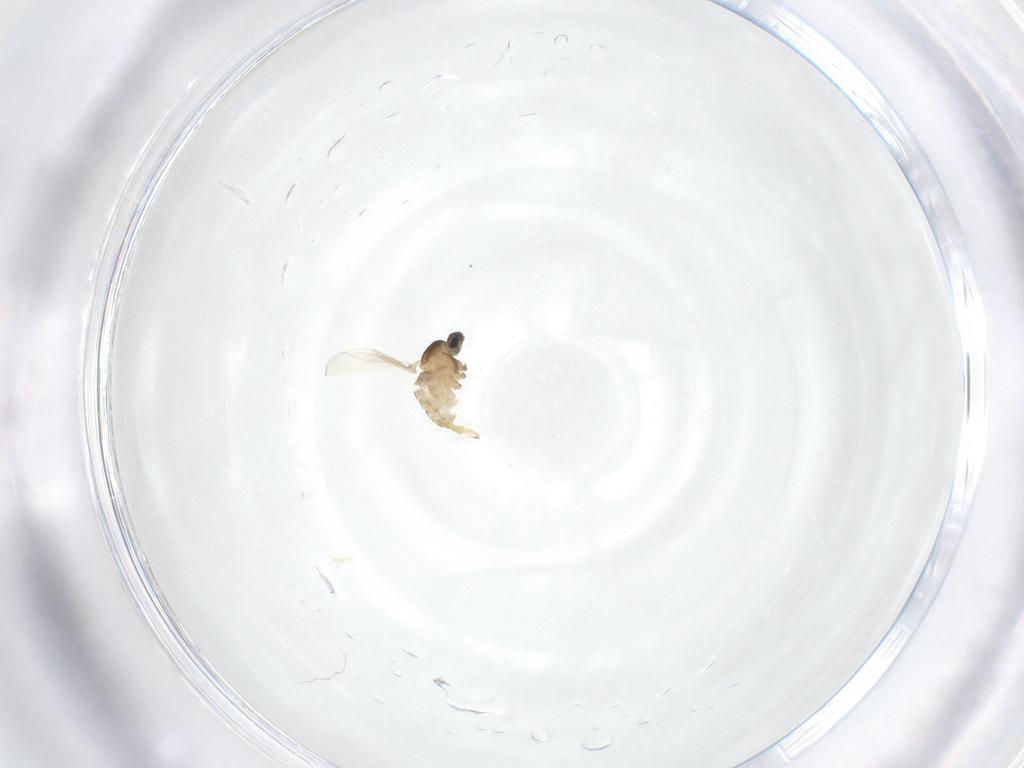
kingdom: Animalia
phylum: Arthropoda
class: Insecta
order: Diptera
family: Cecidomyiidae
